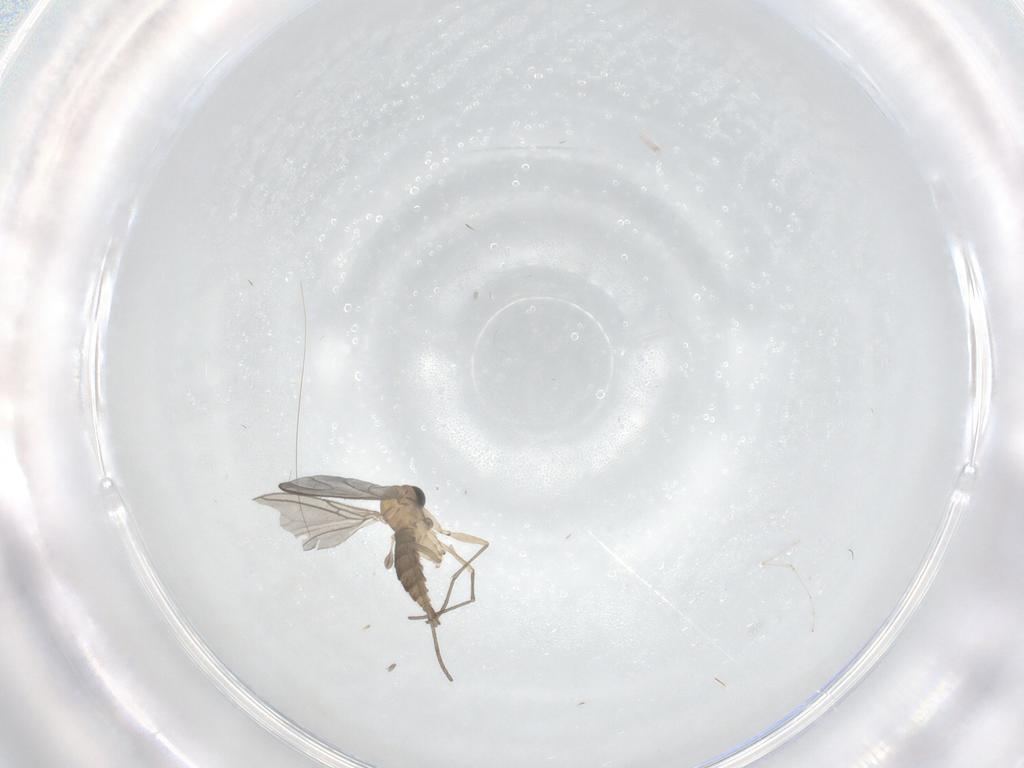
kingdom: Animalia
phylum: Arthropoda
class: Insecta
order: Diptera
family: Sciaridae
